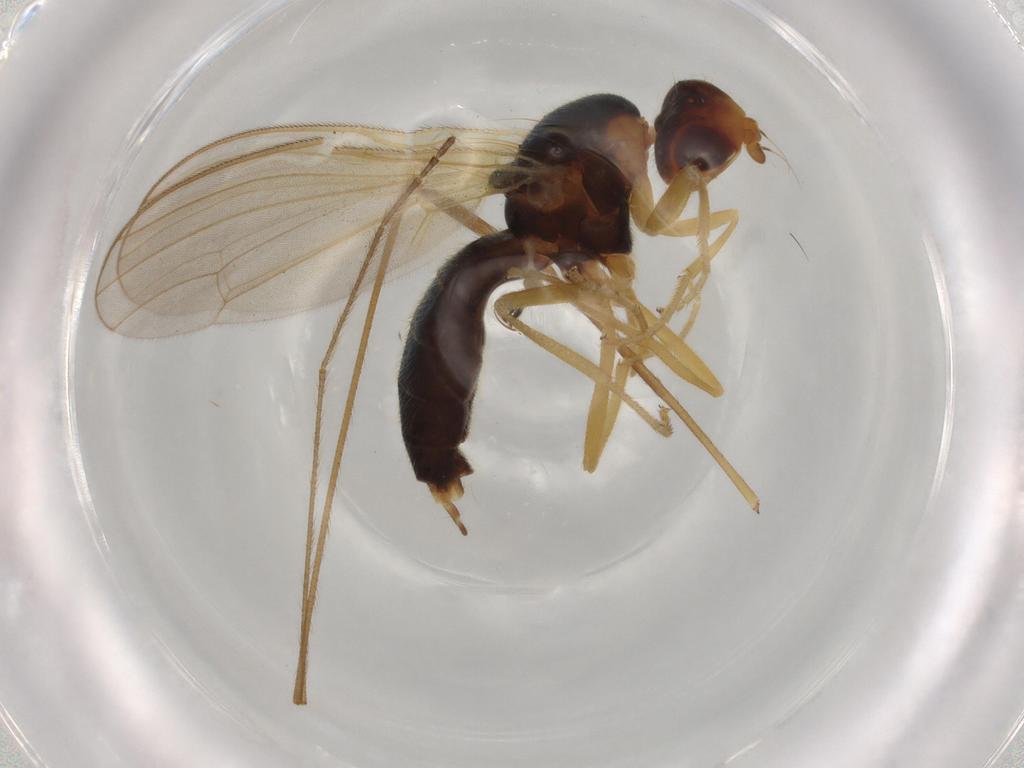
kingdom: Animalia
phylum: Arthropoda
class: Insecta
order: Diptera
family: Psilidae
